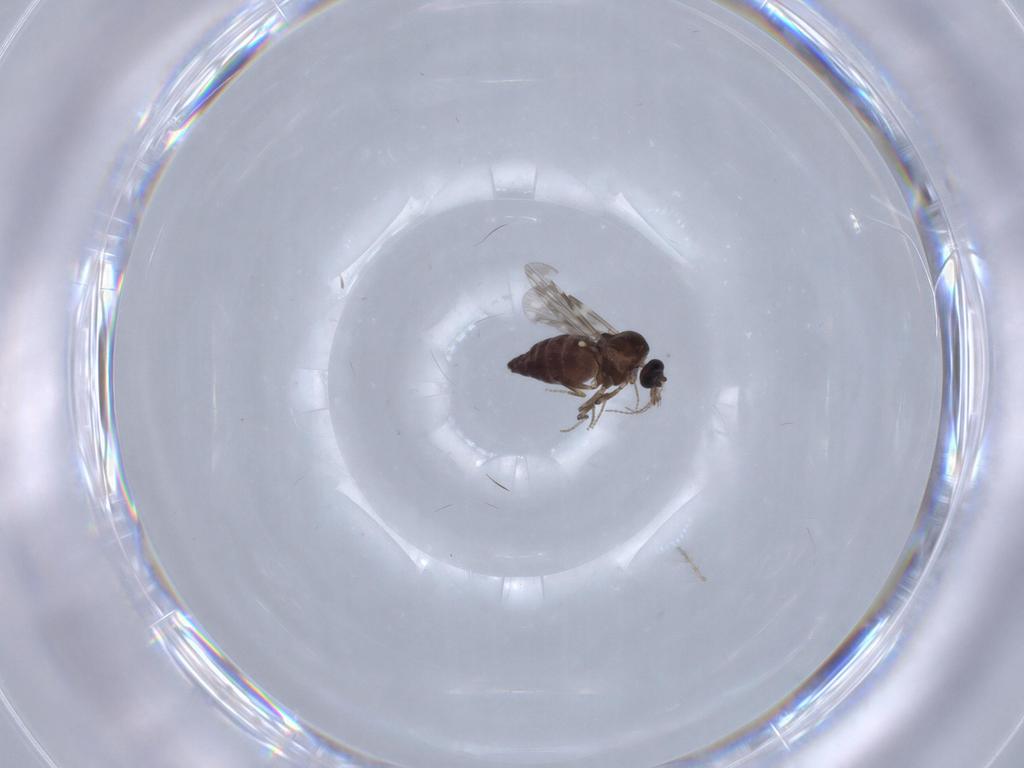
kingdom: Animalia
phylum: Arthropoda
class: Insecta
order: Diptera
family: Ceratopogonidae
